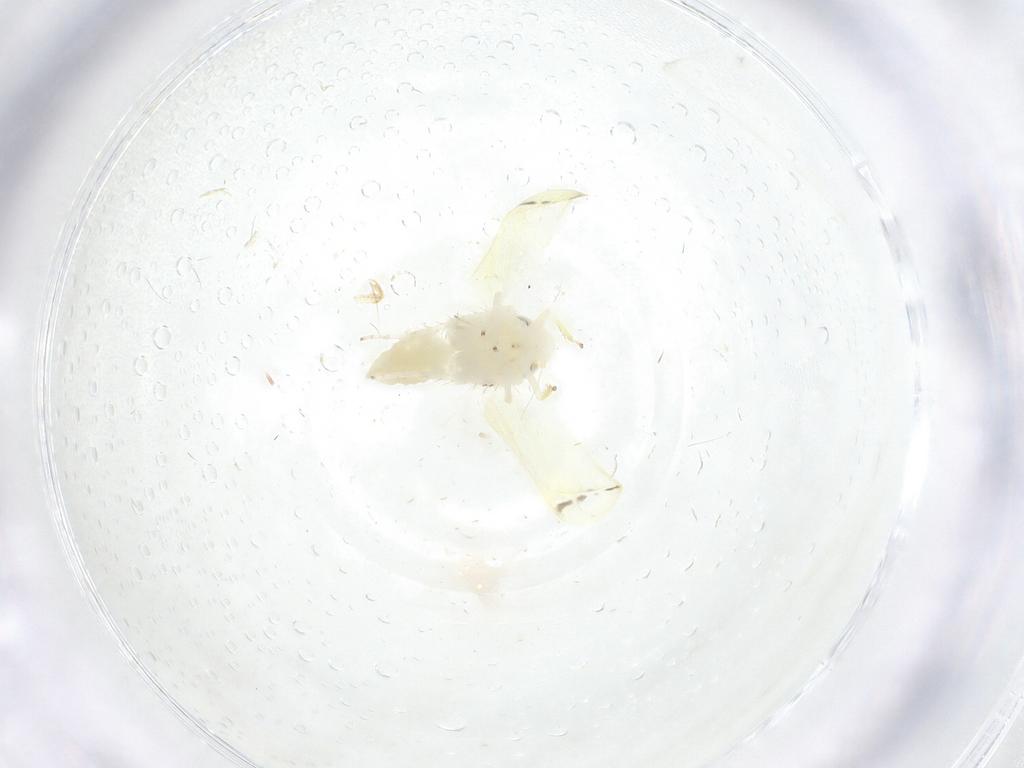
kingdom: Animalia
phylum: Arthropoda
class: Insecta
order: Hemiptera
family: Cicadellidae
